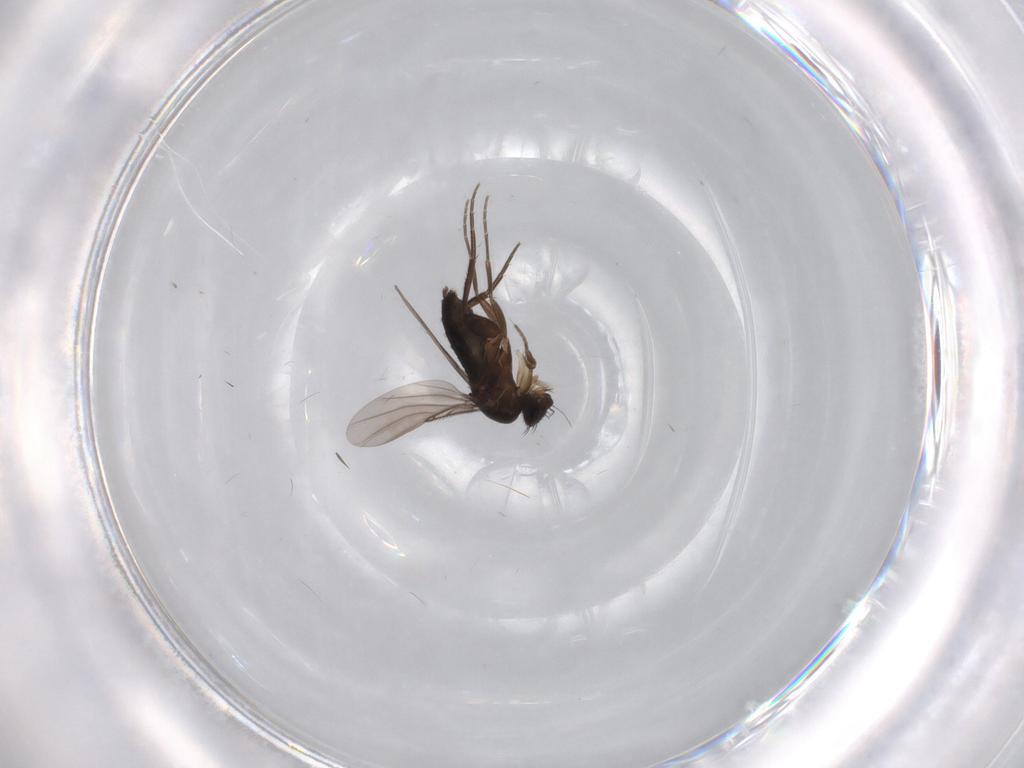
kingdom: Animalia
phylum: Arthropoda
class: Insecta
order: Diptera
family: Phoridae
